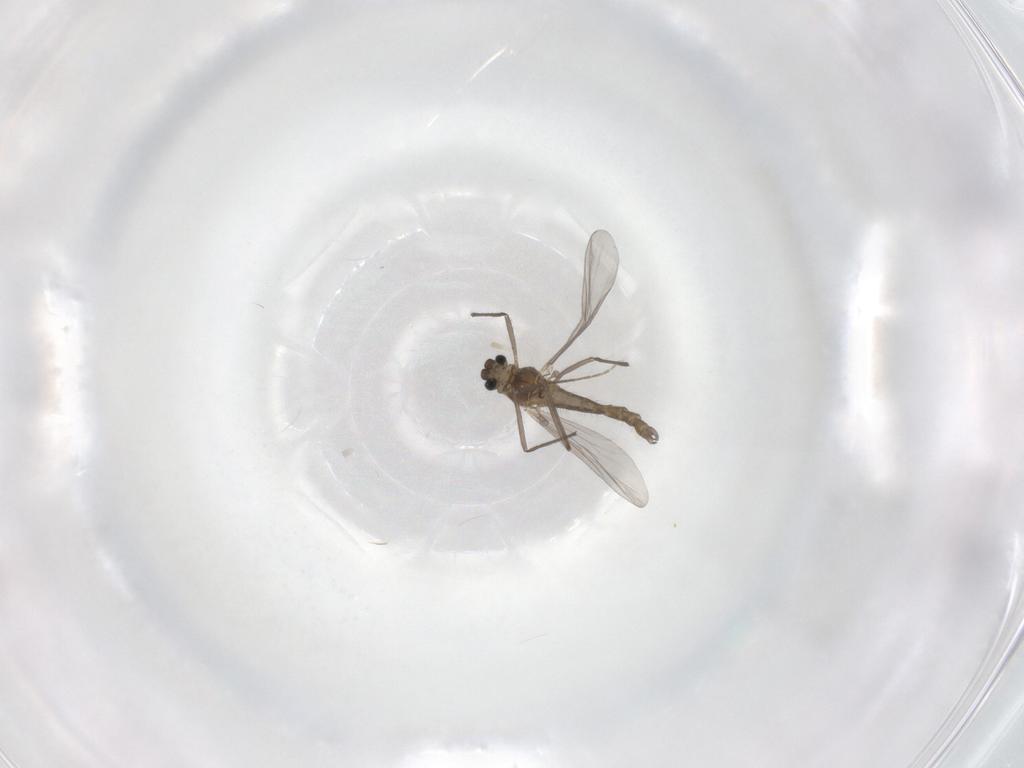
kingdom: Animalia
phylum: Arthropoda
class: Insecta
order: Diptera
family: Chironomidae
